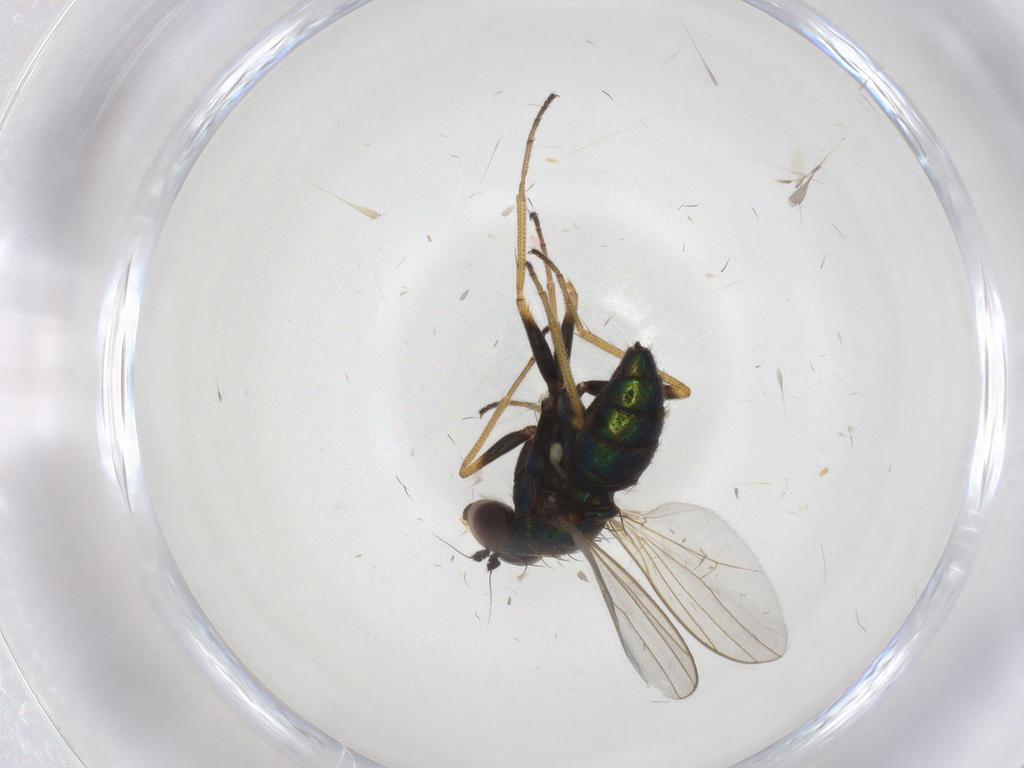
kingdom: Animalia
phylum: Arthropoda
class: Insecta
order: Diptera
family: Dolichopodidae
